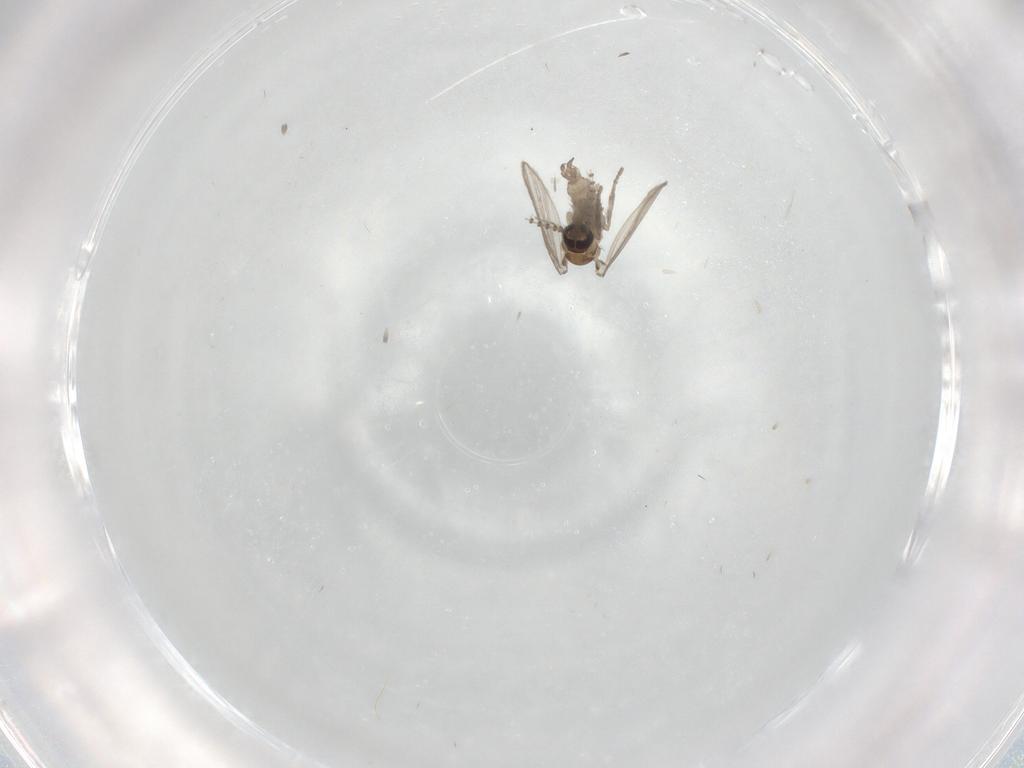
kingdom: Animalia
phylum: Arthropoda
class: Insecta
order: Diptera
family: Psychodidae
